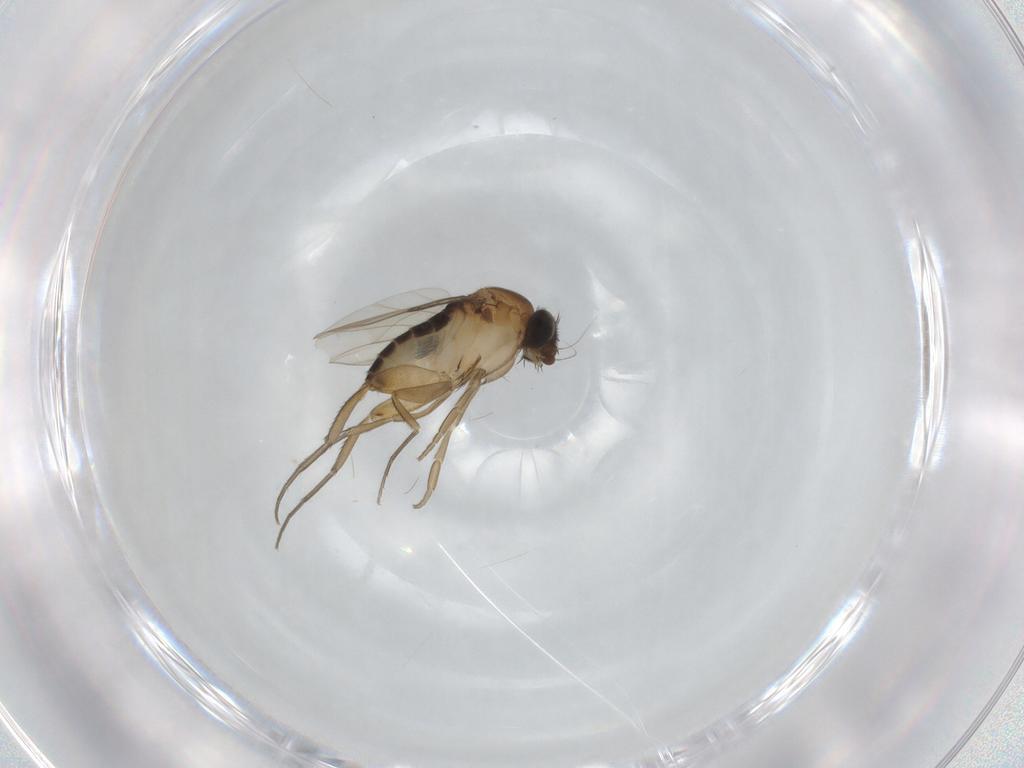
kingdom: Animalia
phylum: Arthropoda
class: Insecta
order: Diptera
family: Phoridae
